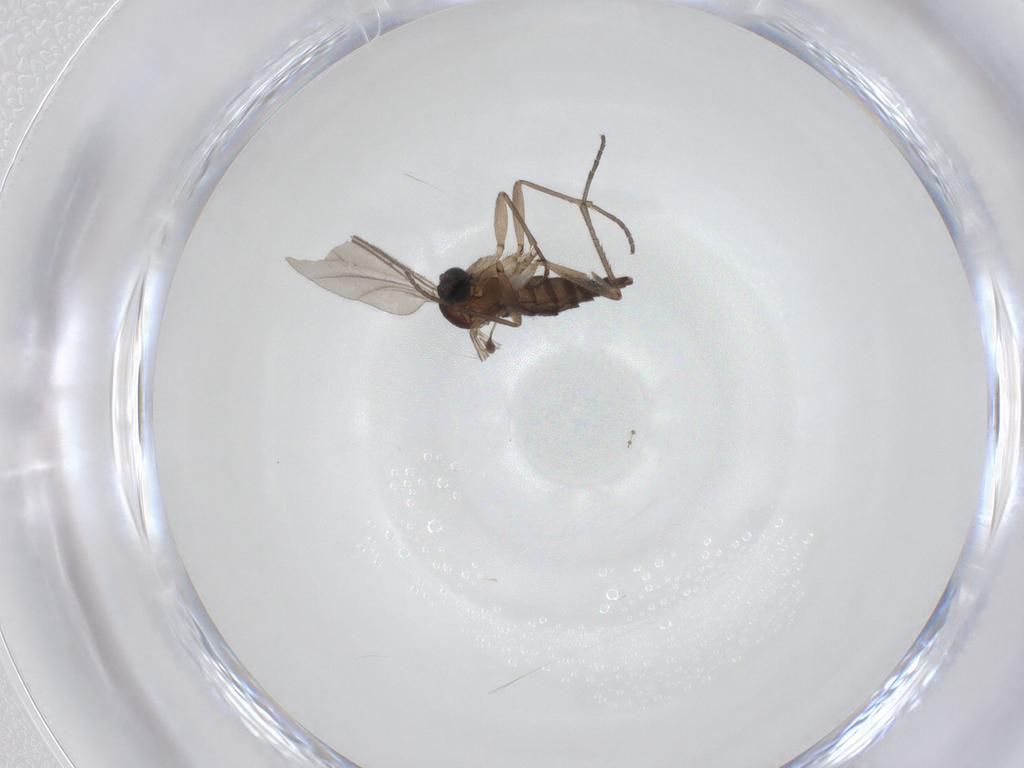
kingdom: Animalia
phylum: Arthropoda
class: Insecta
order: Diptera
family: Sciaridae
